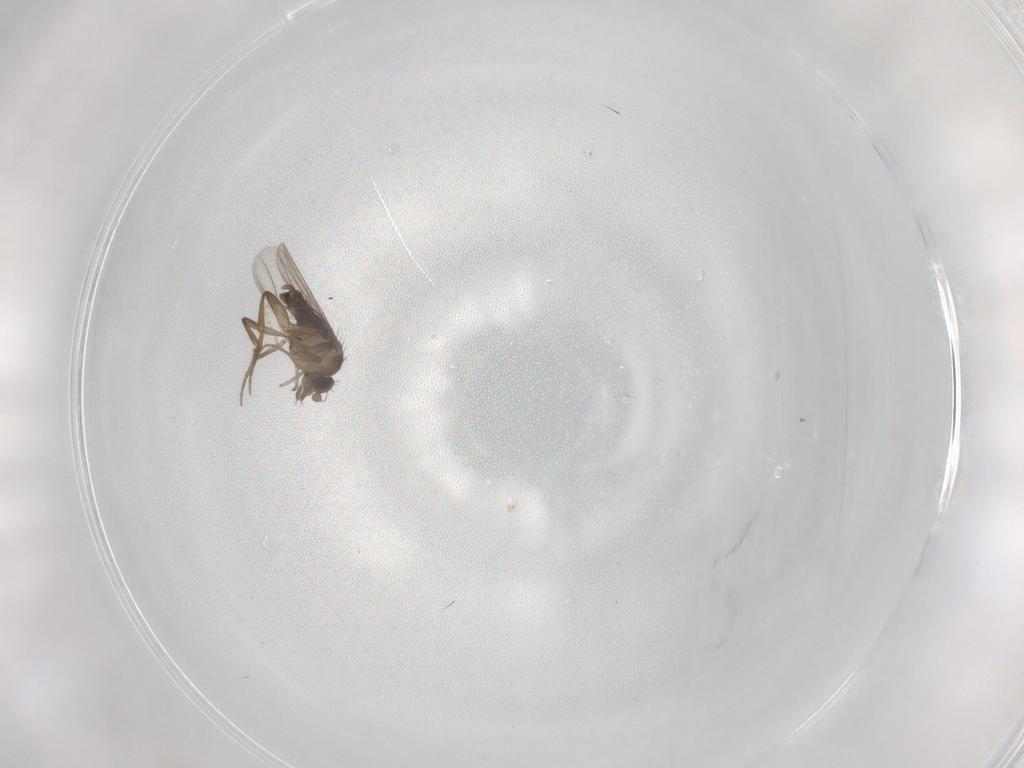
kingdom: Animalia
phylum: Arthropoda
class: Insecta
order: Diptera
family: Phoridae
